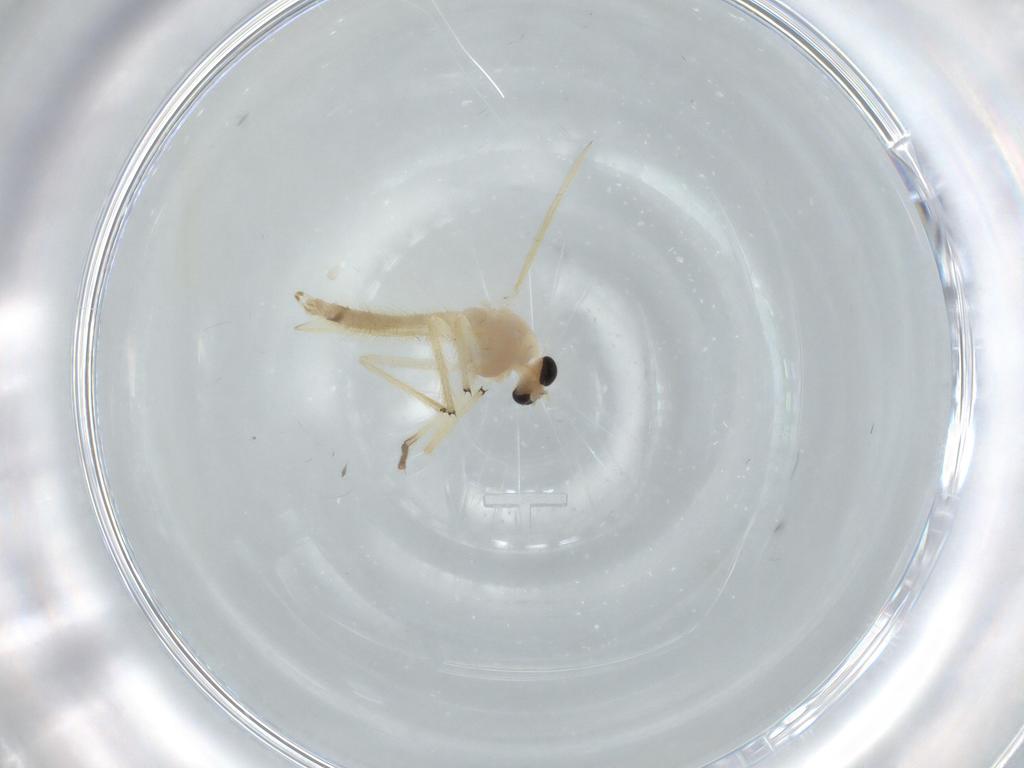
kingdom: Animalia
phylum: Arthropoda
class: Insecta
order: Diptera
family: Chironomidae
